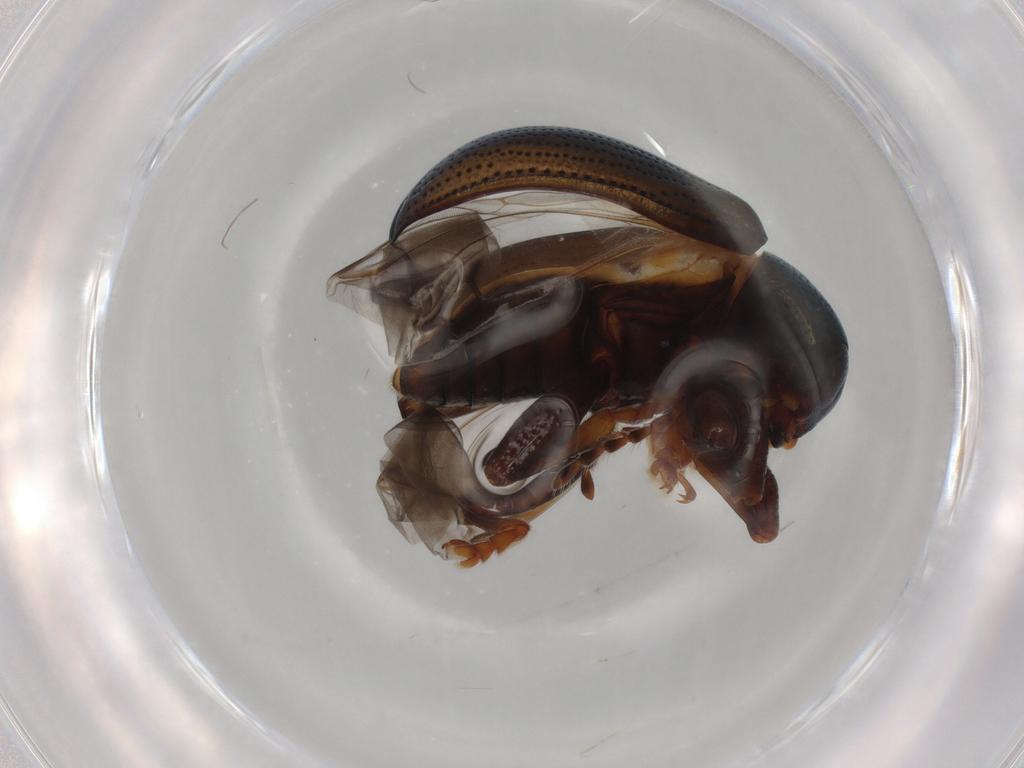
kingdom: Animalia
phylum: Arthropoda
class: Insecta
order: Coleoptera
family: Chrysomelidae
